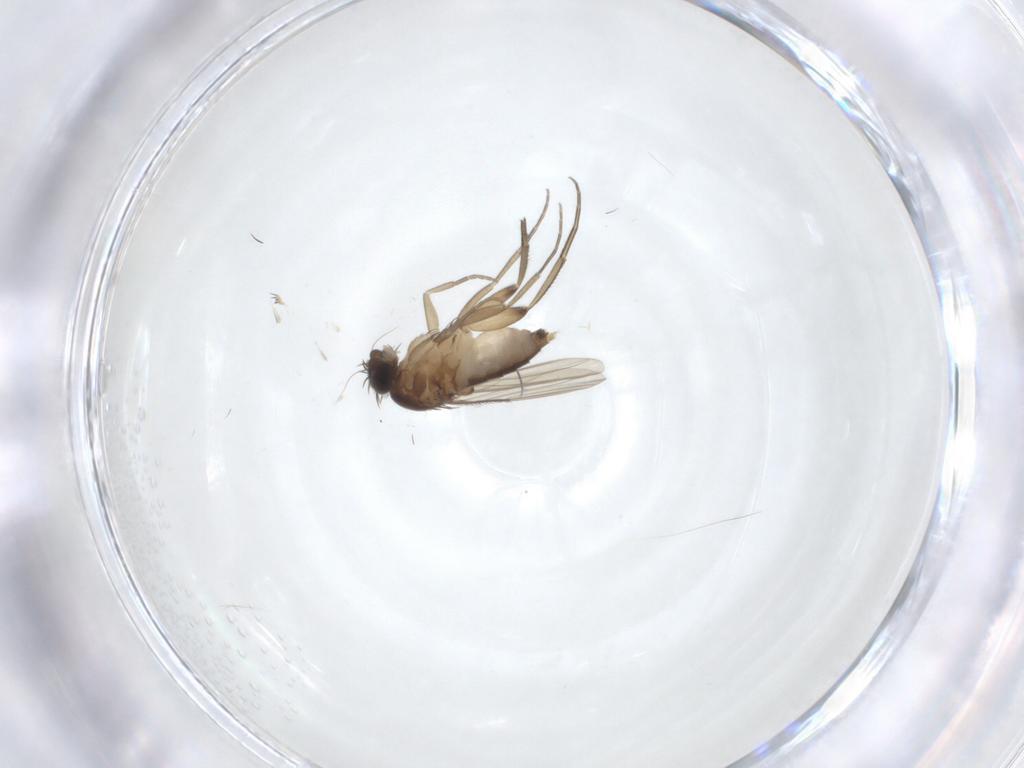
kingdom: Animalia
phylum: Arthropoda
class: Insecta
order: Diptera
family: Phoridae
